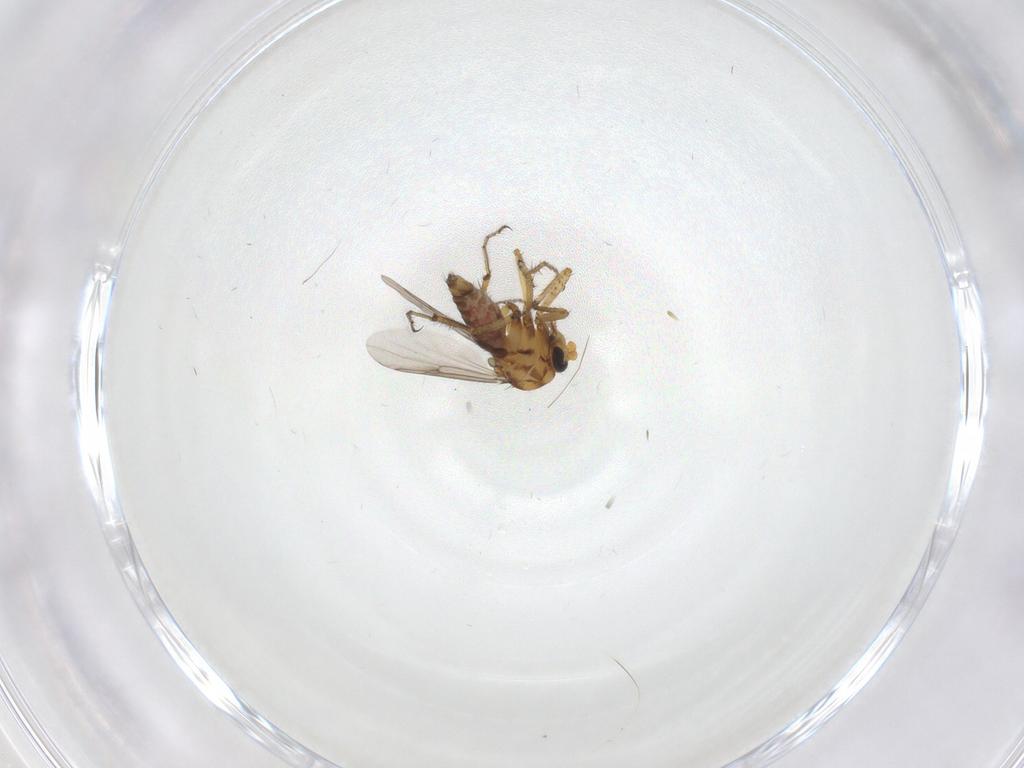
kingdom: Animalia
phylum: Arthropoda
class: Insecta
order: Diptera
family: Ceratopogonidae
